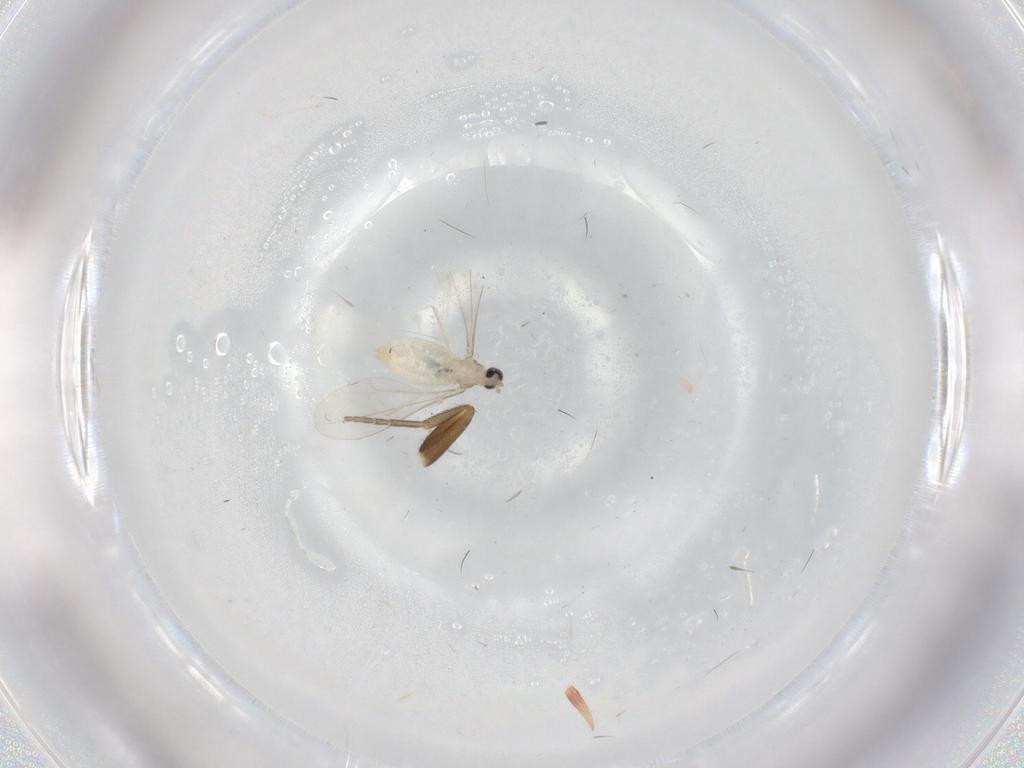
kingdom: Animalia
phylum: Arthropoda
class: Insecta
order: Diptera
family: Cecidomyiidae
